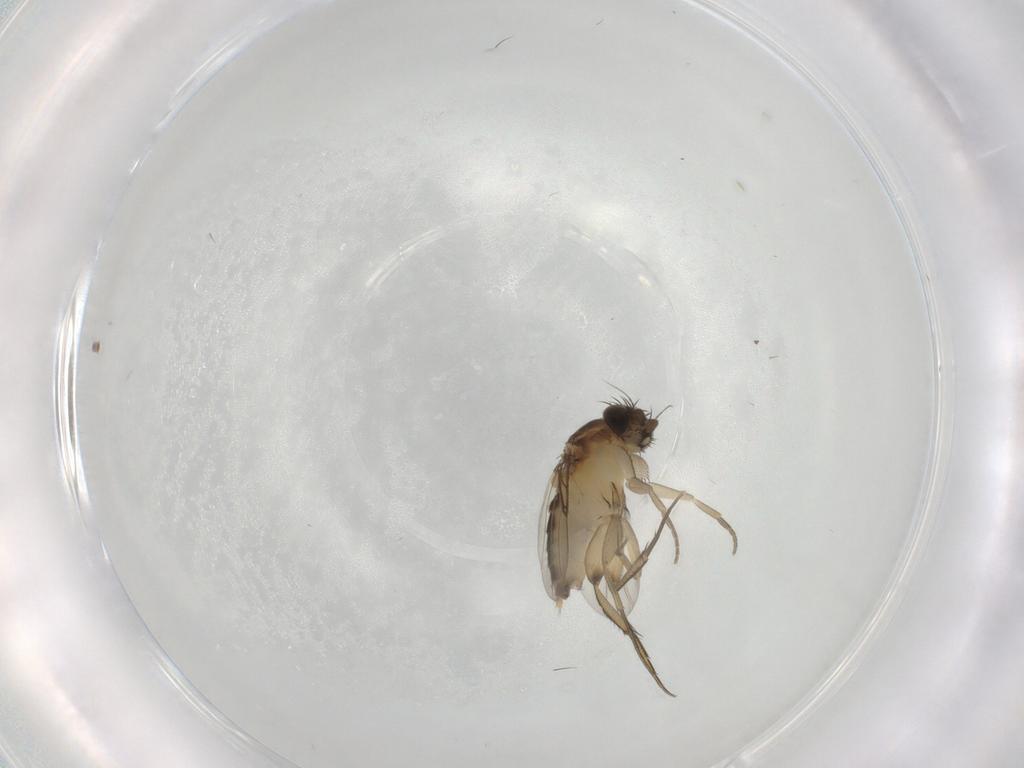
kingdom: Animalia
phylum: Arthropoda
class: Insecta
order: Diptera
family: Phoridae
